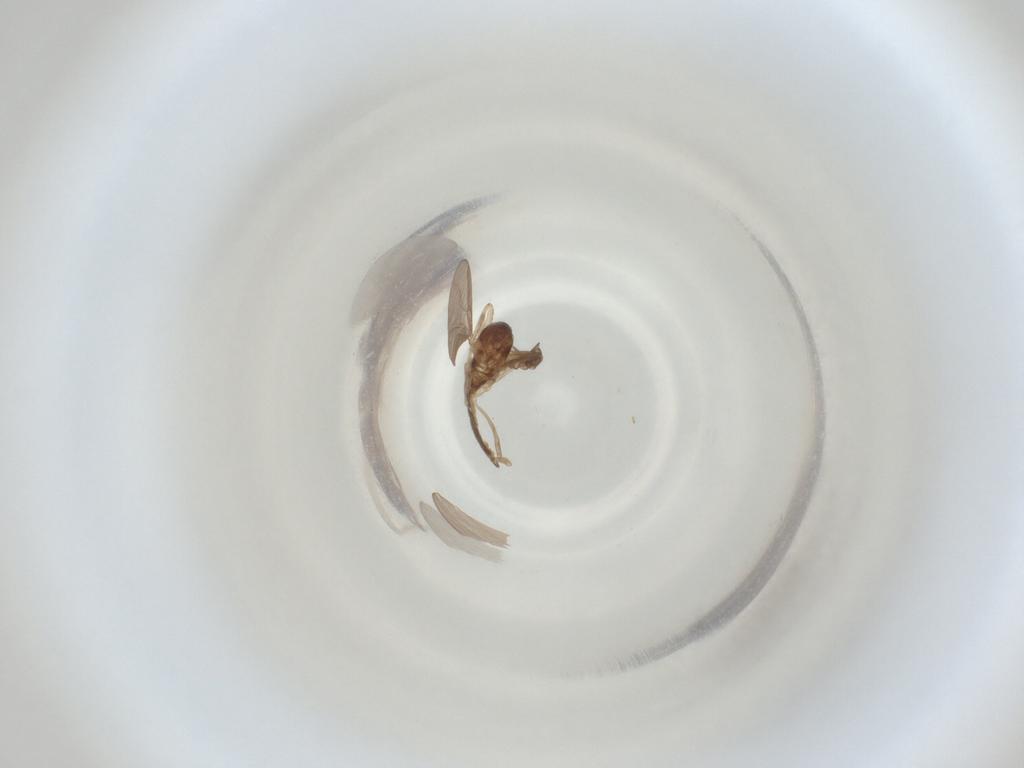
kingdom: Animalia
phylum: Arthropoda
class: Insecta
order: Diptera
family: Cecidomyiidae
